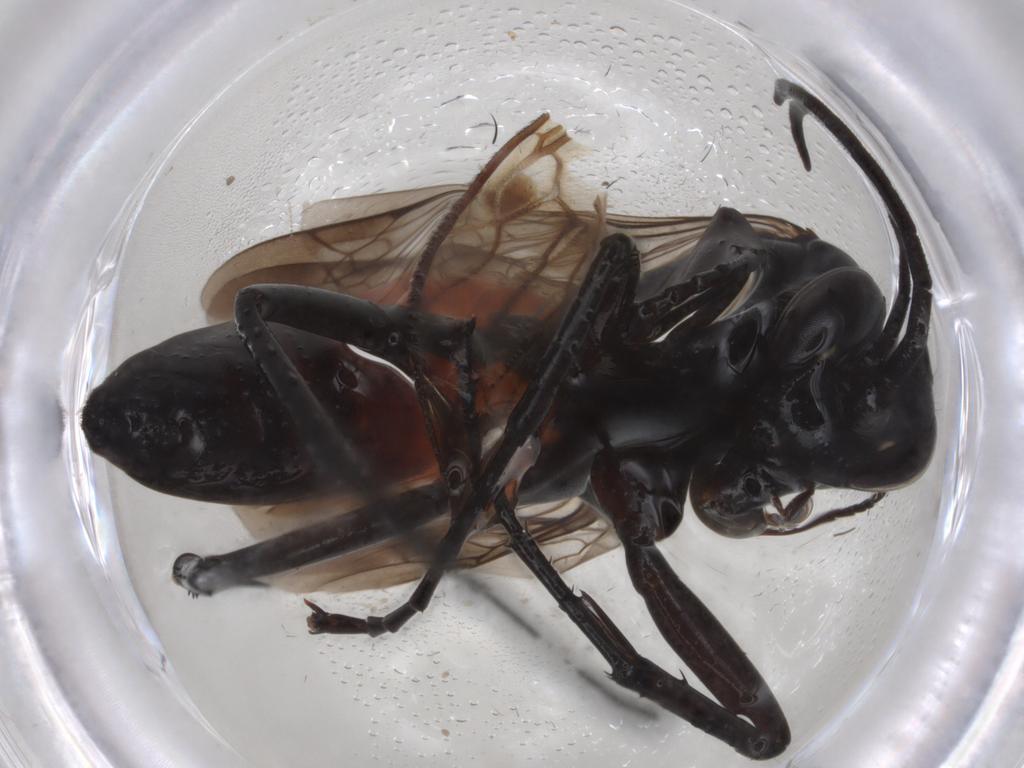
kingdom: Animalia
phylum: Arthropoda
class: Insecta
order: Hymenoptera
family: Pompilidae
